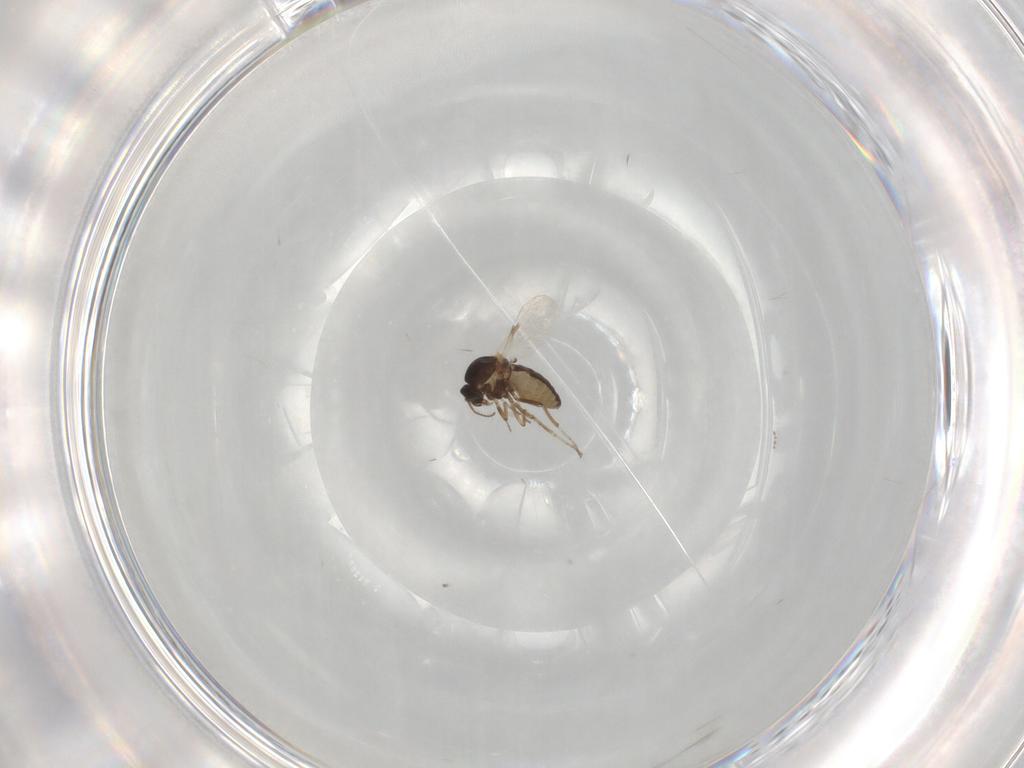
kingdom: Animalia
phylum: Arthropoda
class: Insecta
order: Diptera
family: Ceratopogonidae
